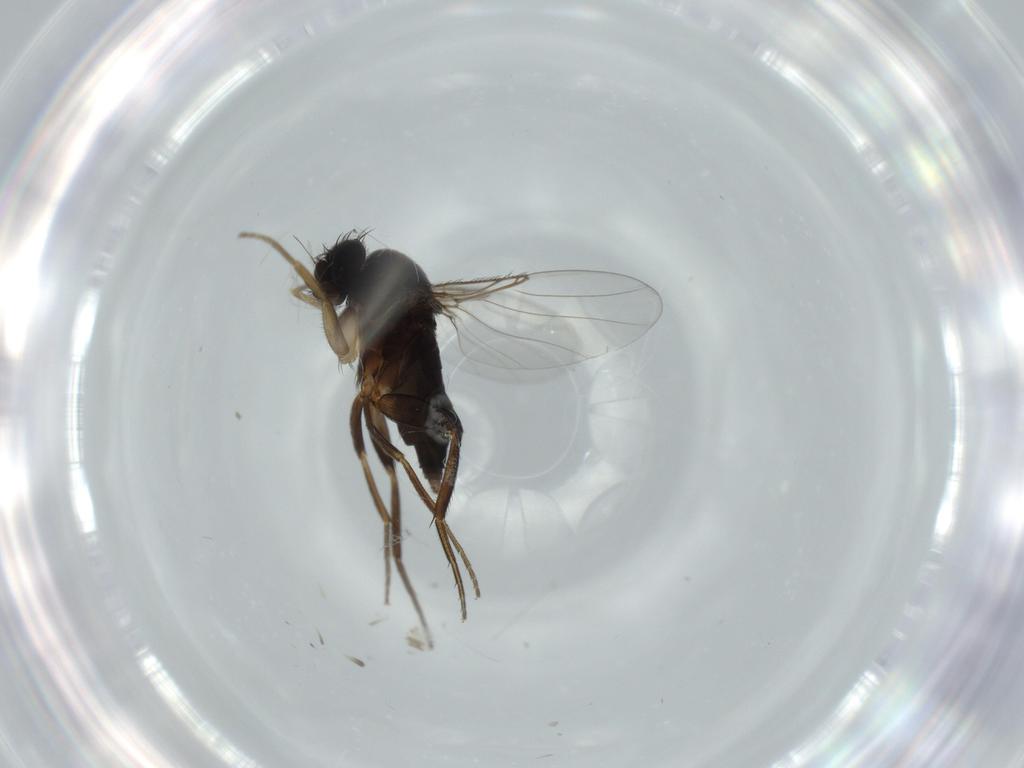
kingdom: Animalia
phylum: Arthropoda
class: Insecta
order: Diptera
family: Phoridae
